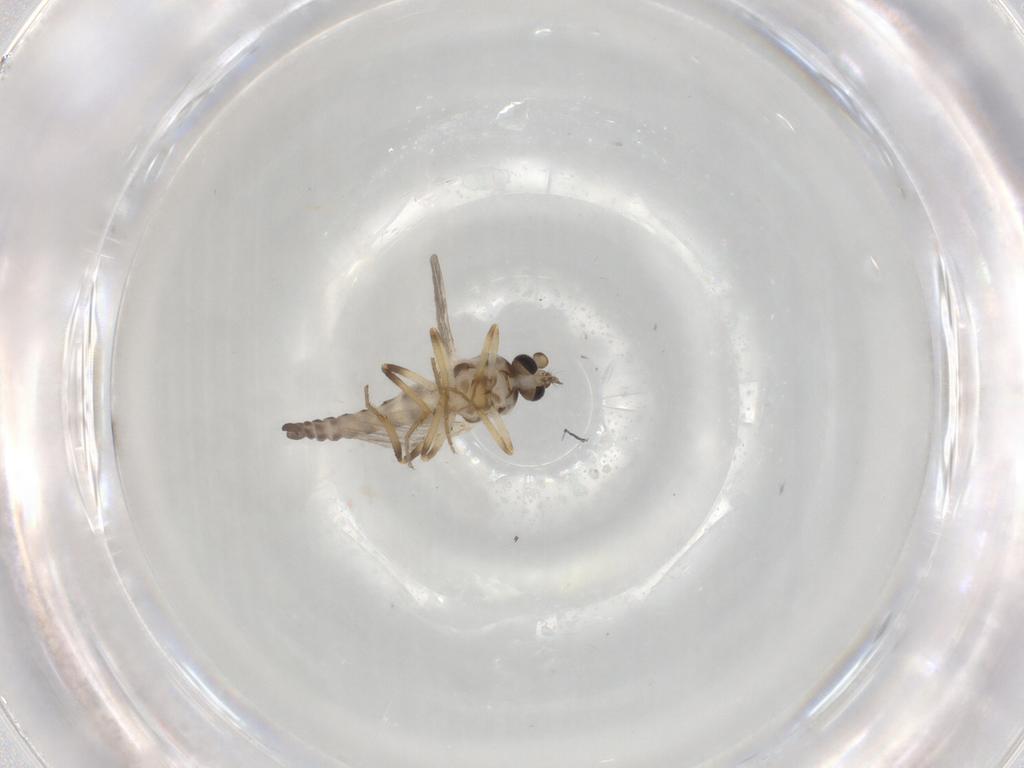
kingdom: Animalia
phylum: Arthropoda
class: Insecta
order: Diptera
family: Ceratopogonidae
